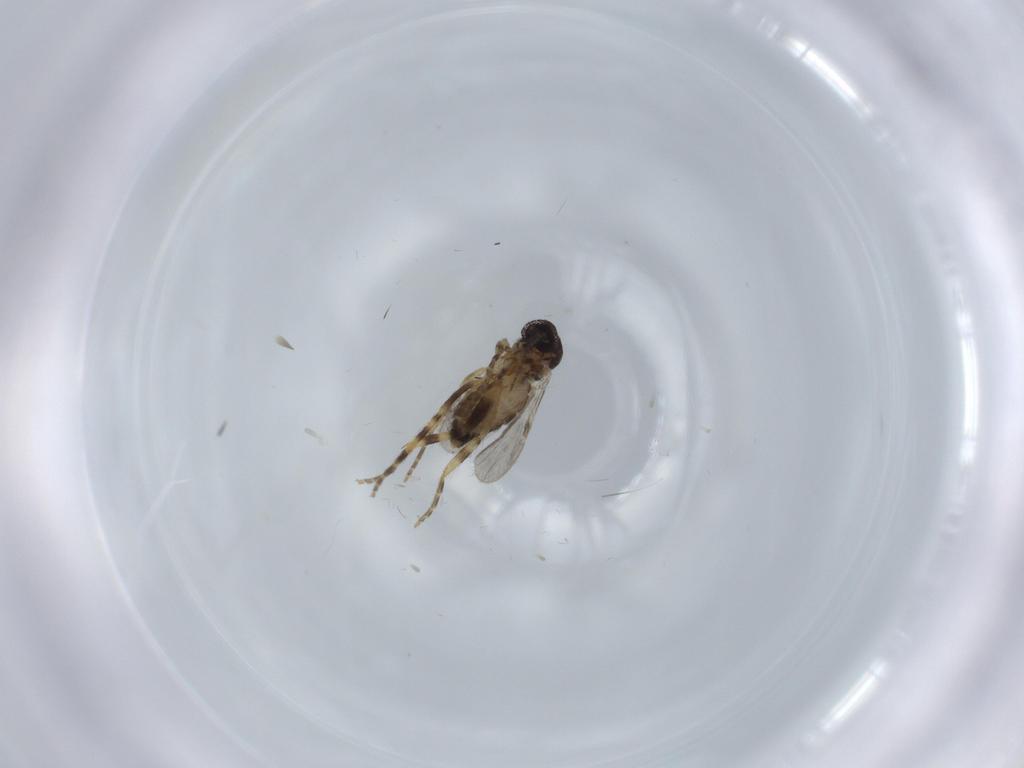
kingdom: Animalia
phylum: Arthropoda
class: Insecta
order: Diptera
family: Ceratopogonidae
